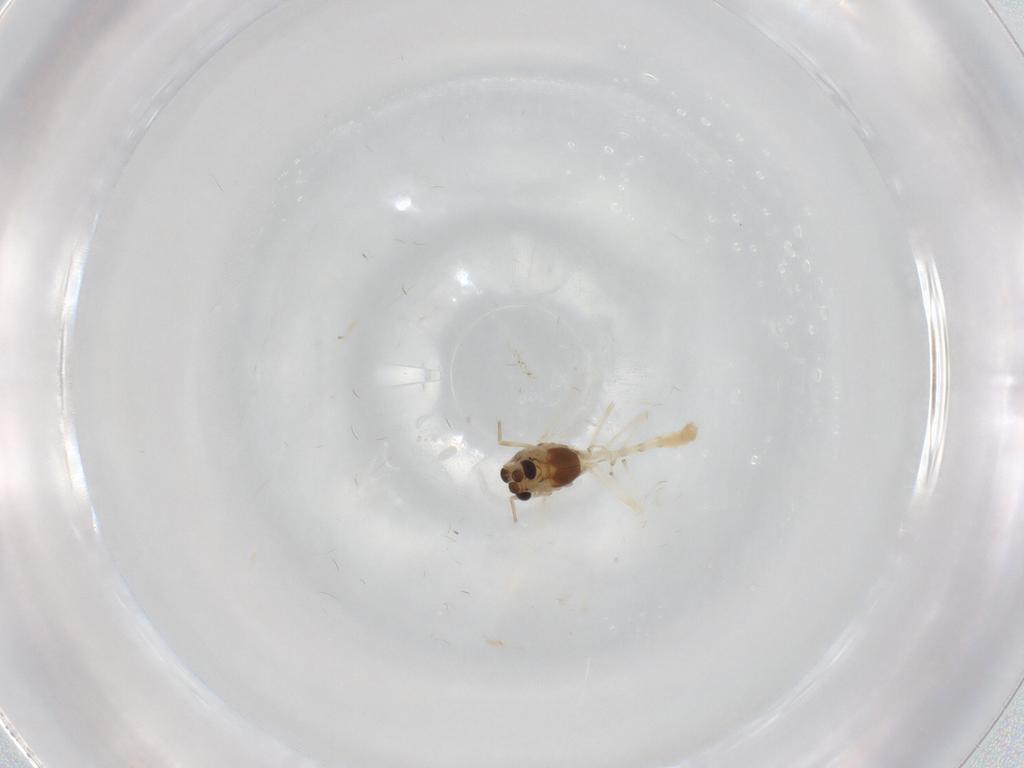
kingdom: Animalia
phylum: Arthropoda
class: Insecta
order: Diptera
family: Chironomidae
